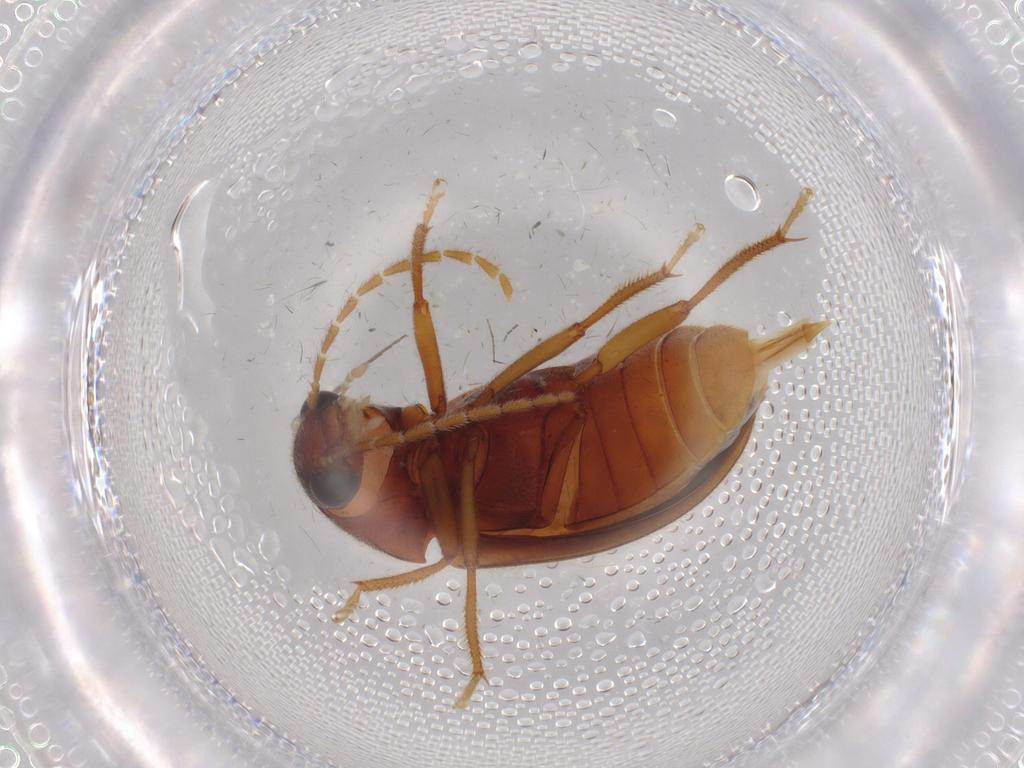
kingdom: Animalia
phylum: Arthropoda
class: Insecta
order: Coleoptera
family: Ptilodactylidae
